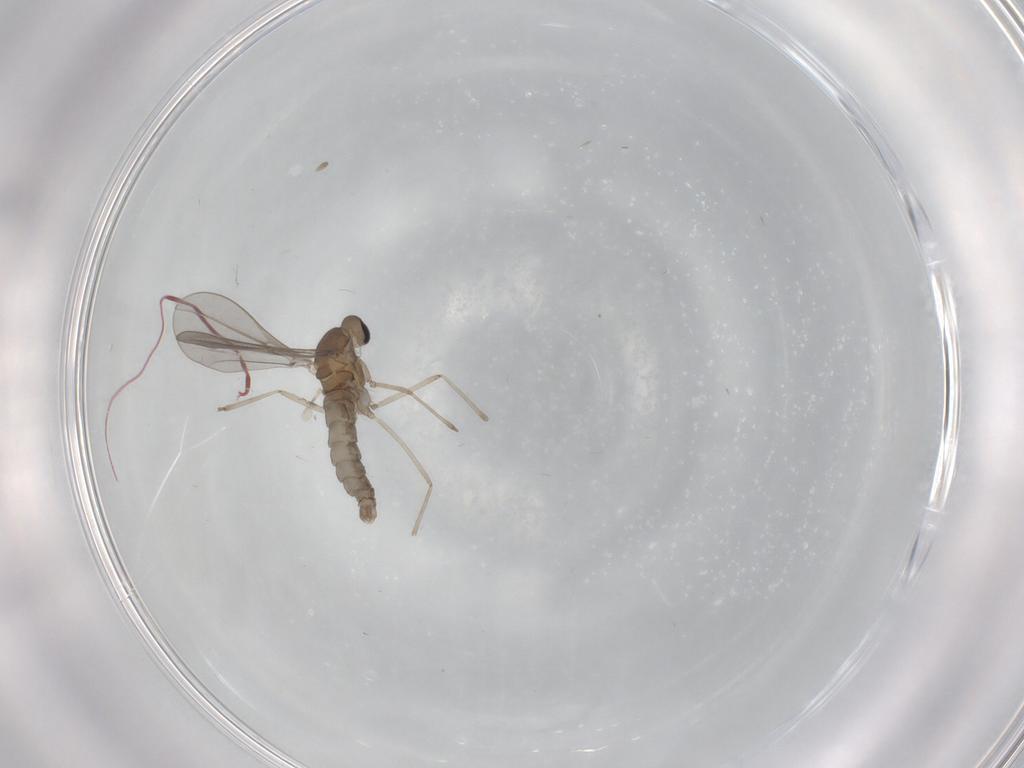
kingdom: Animalia
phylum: Arthropoda
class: Insecta
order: Diptera
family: Cecidomyiidae
